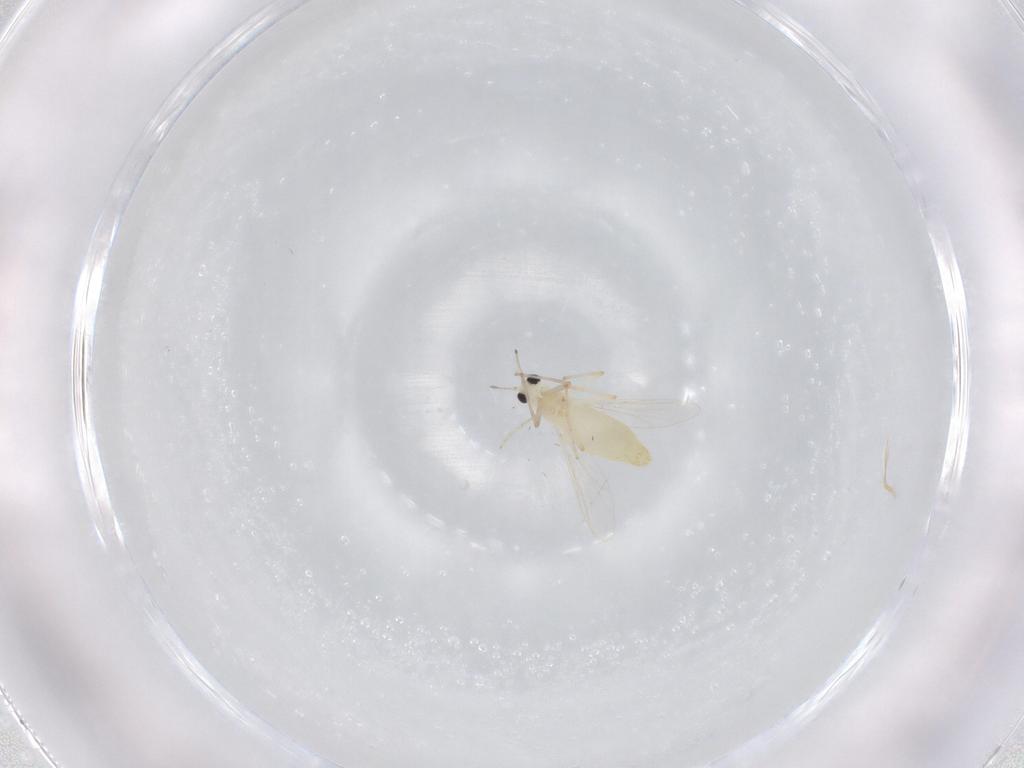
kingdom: Animalia
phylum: Arthropoda
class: Insecta
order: Diptera
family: Chironomidae
